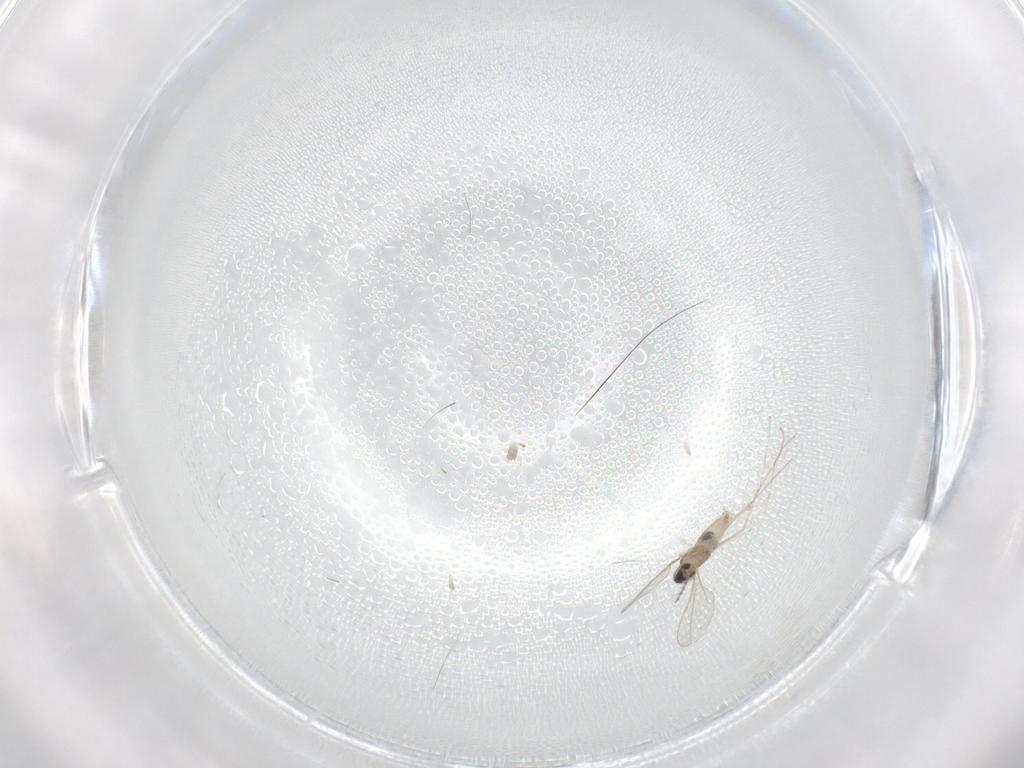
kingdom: Animalia
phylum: Arthropoda
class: Insecta
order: Diptera
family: Cecidomyiidae
